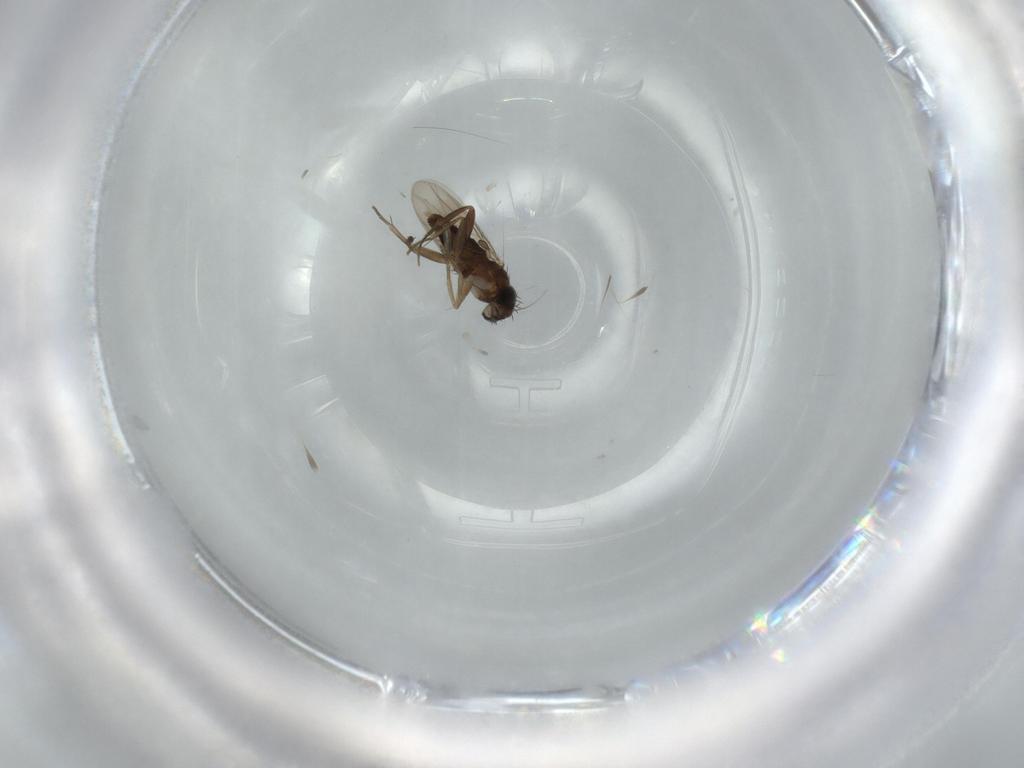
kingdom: Animalia
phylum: Arthropoda
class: Insecta
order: Diptera
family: Phoridae
